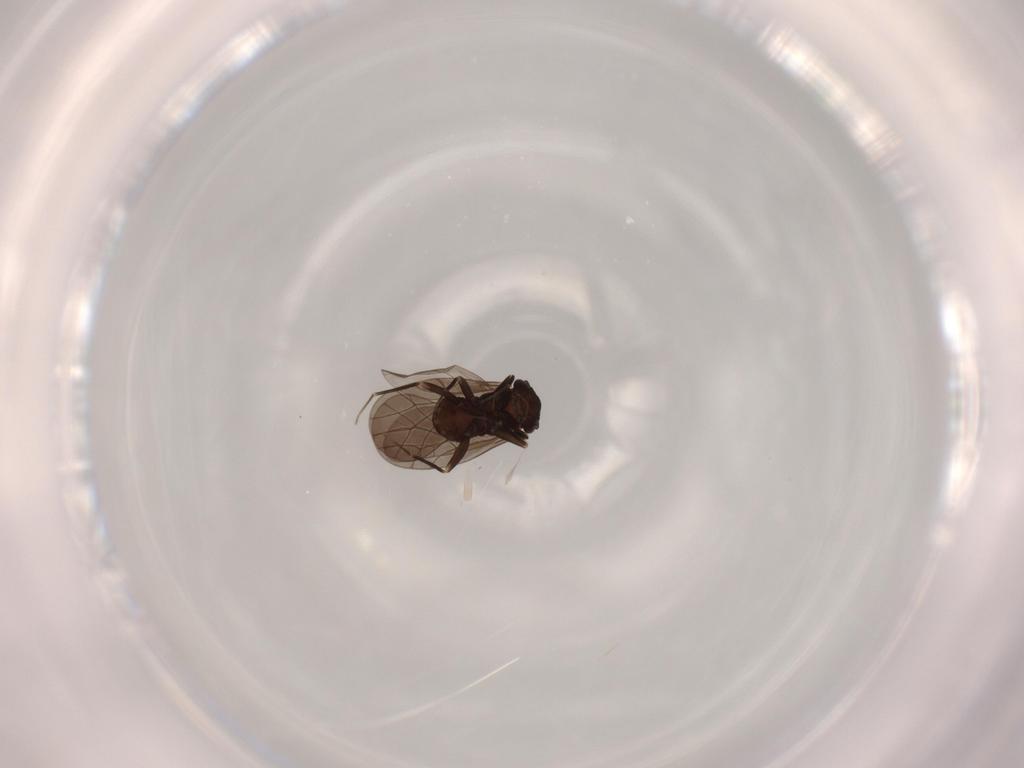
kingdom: Animalia
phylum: Arthropoda
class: Insecta
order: Psocodea
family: Lepidopsocidae
